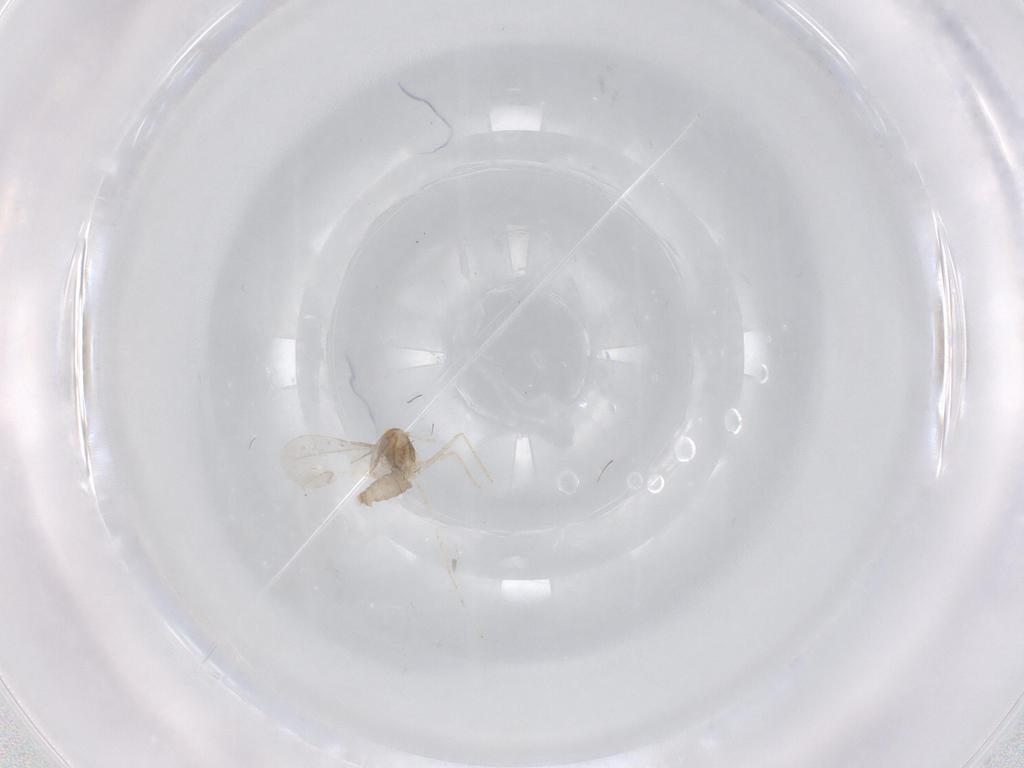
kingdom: Animalia
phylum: Arthropoda
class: Insecta
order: Diptera
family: Cecidomyiidae
